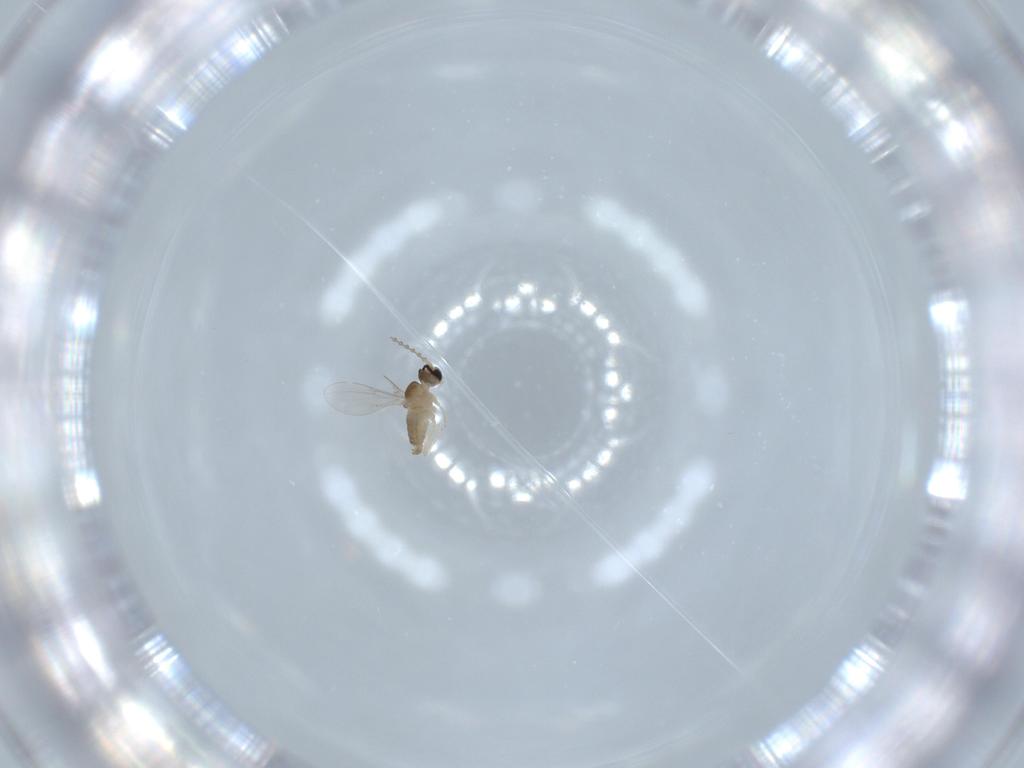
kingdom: Animalia
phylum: Arthropoda
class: Insecta
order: Diptera
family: Cecidomyiidae
